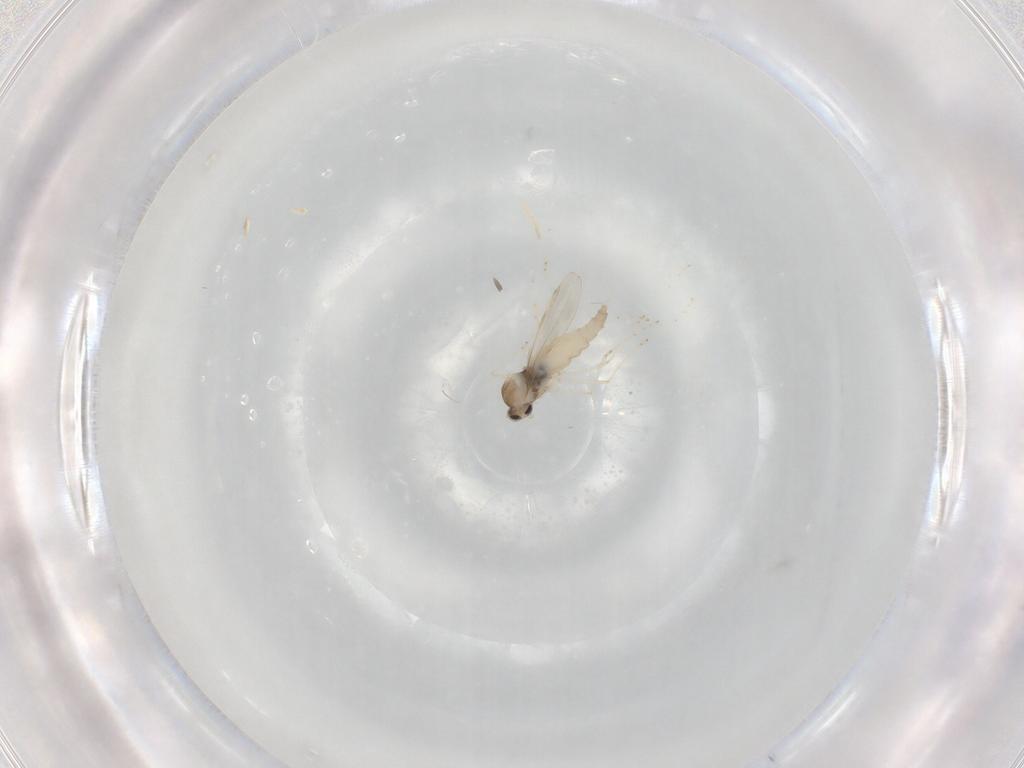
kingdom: Animalia
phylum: Arthropoda
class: Insecta
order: Diptera
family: Cecidomyiidae
